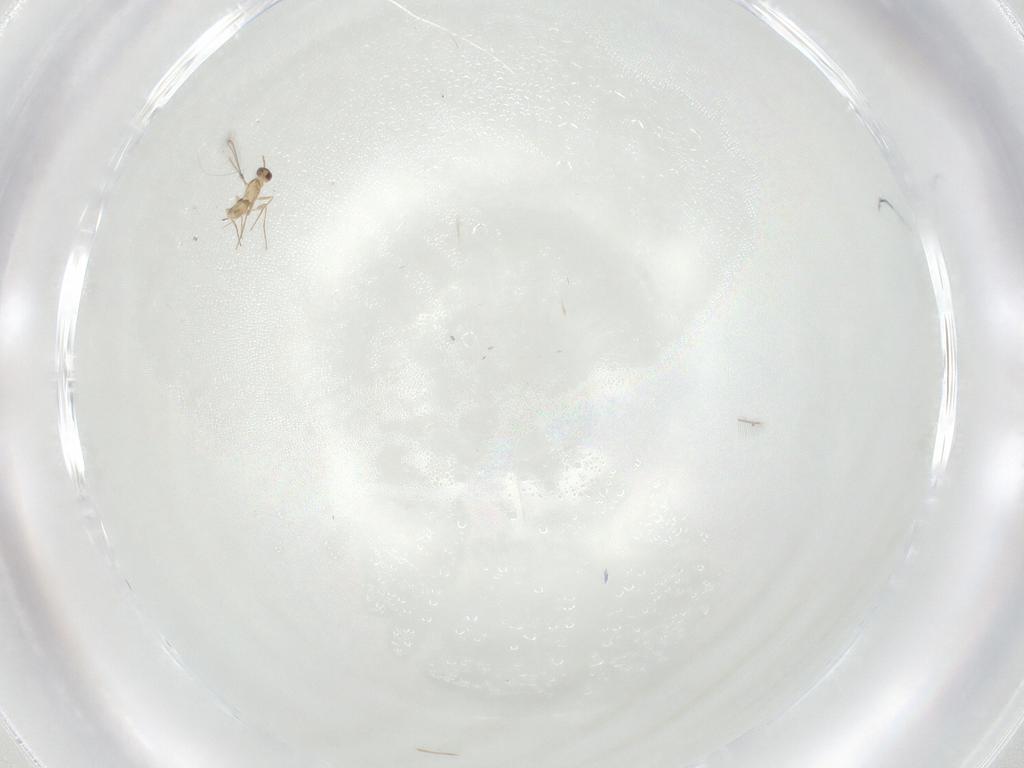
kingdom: Animalia
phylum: Arthropoda
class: Insecta
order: Hymenoptera
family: Mymaridae
